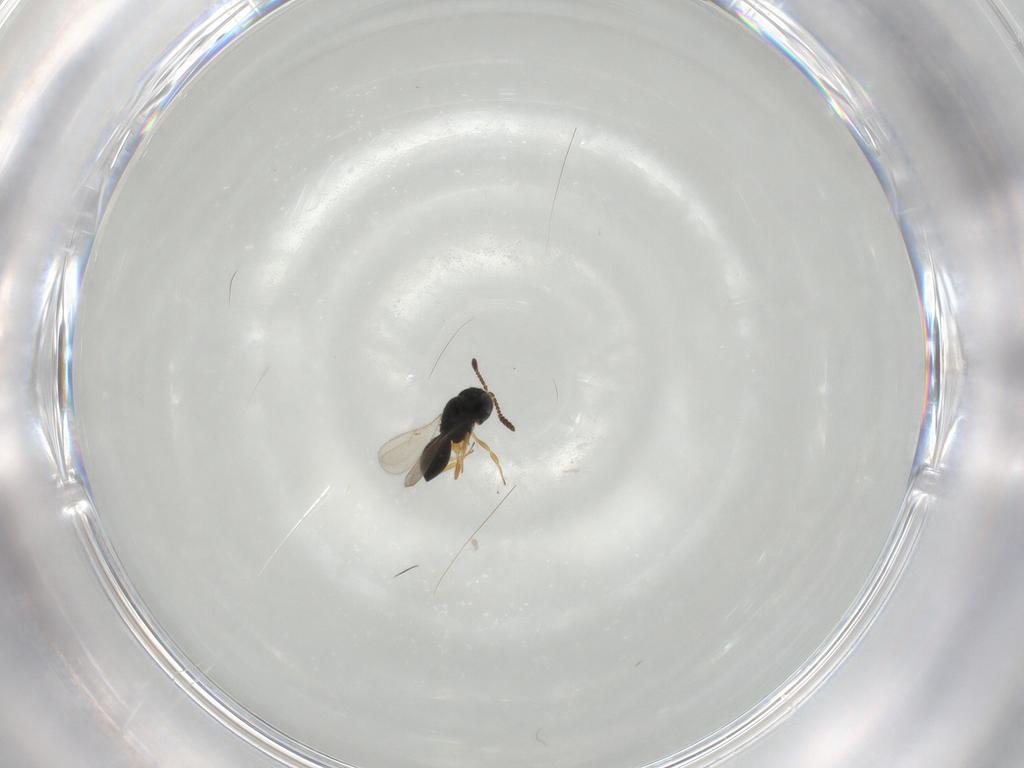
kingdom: Animalia
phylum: Arthropoda
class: Insecta
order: Hymenoptera
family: Scelionidae
